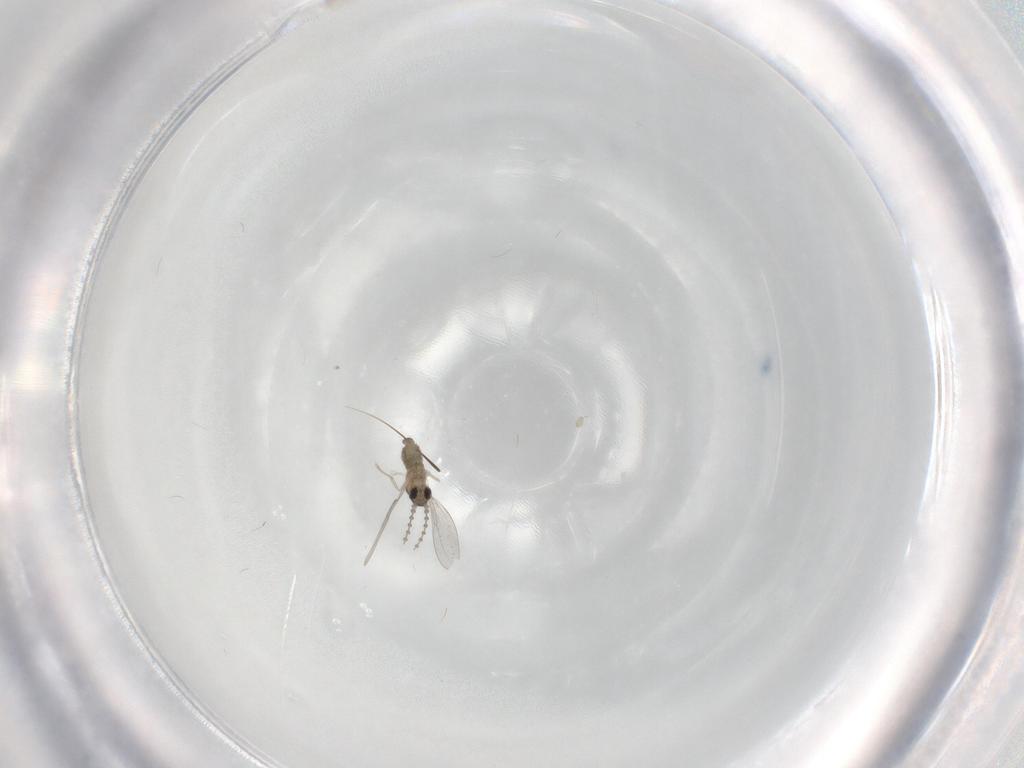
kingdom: Animalia
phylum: Arthropoda
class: Insecta
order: Diptera
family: Cecidomyiidae
